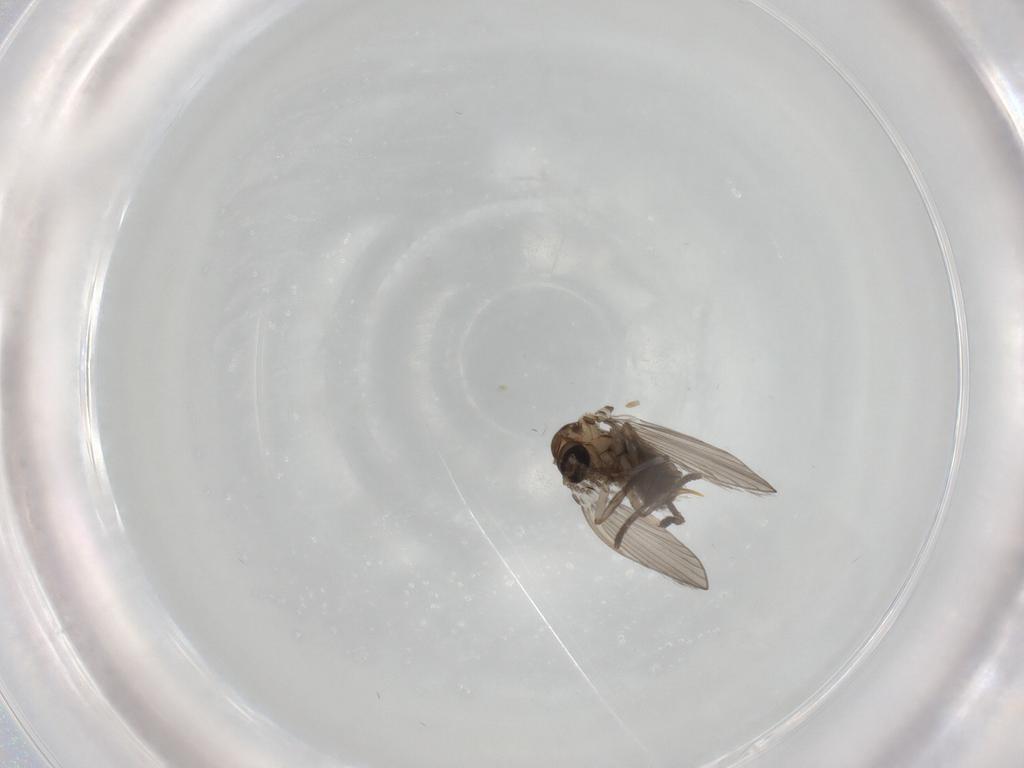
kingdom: Animalia
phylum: Arthropoda
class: Insecta
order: Diptera
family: Psychodidae
